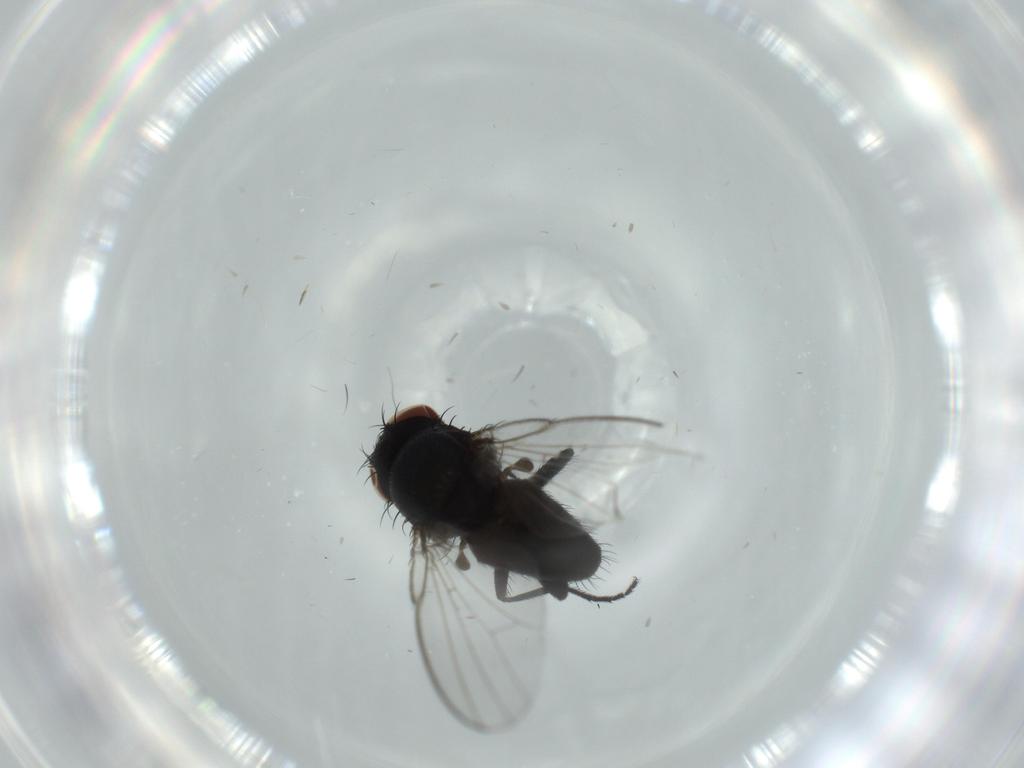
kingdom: Animalia
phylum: Arthropoda
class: Insecta
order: Diptera
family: Milichiidae
